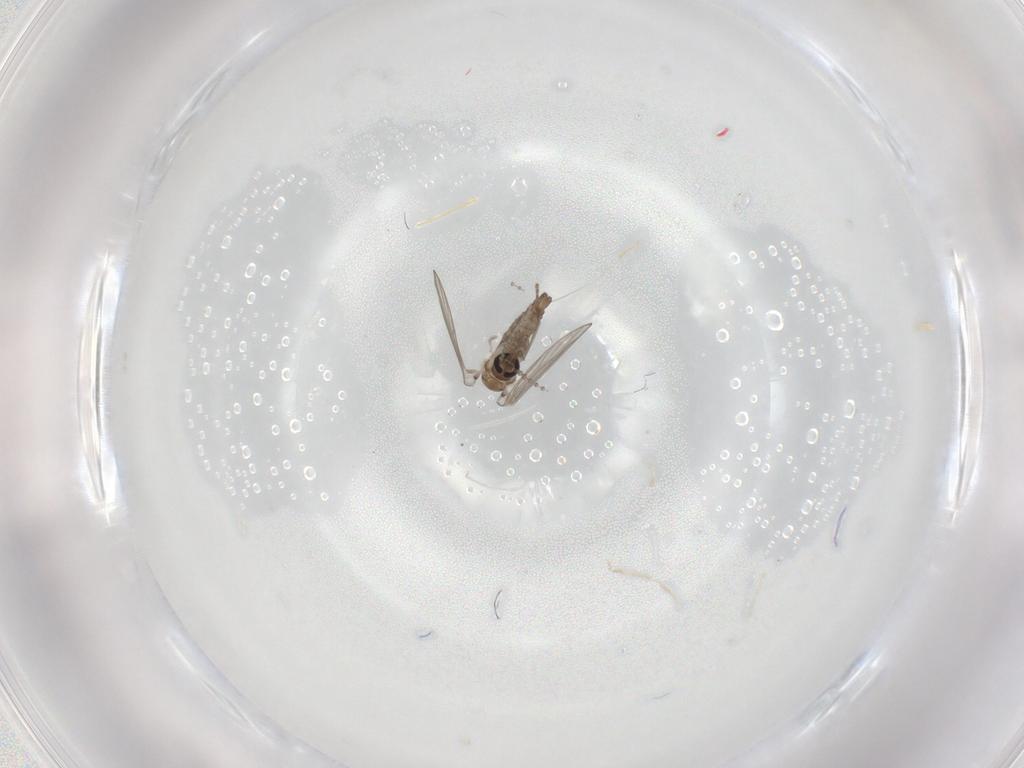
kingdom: Animalia
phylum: Arthropoda
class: Insecta
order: Diptera
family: Psychodidae
